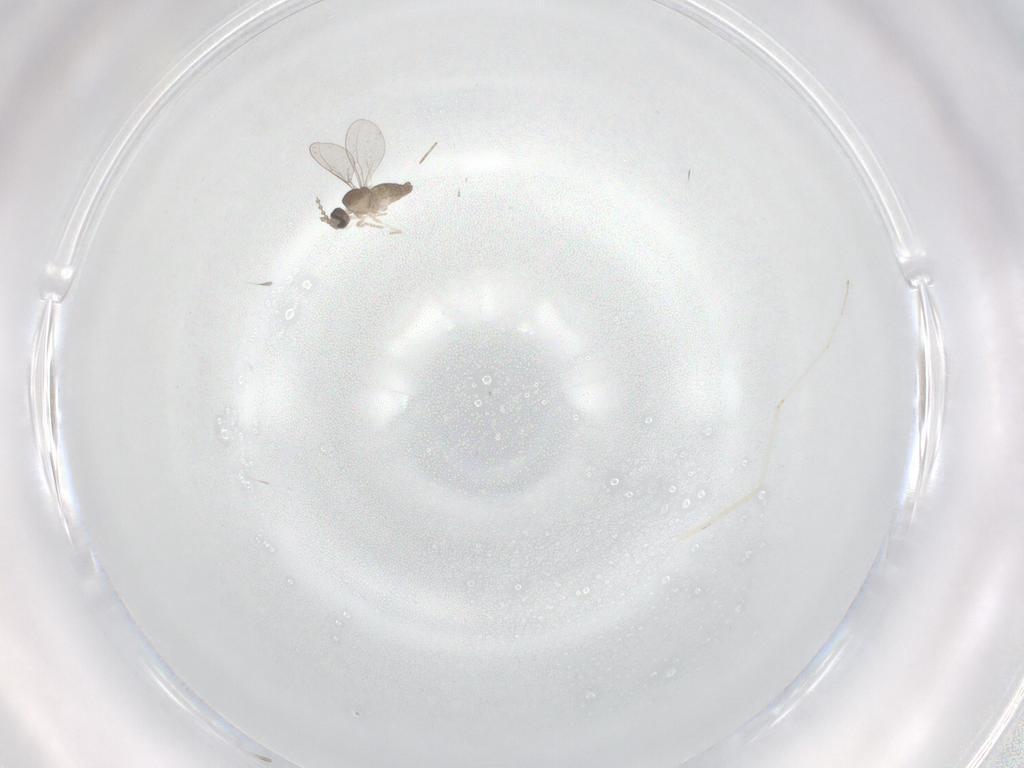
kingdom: Animalia
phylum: Arthropoda
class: Insecta
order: Diptera
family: Cecidomyiidae
